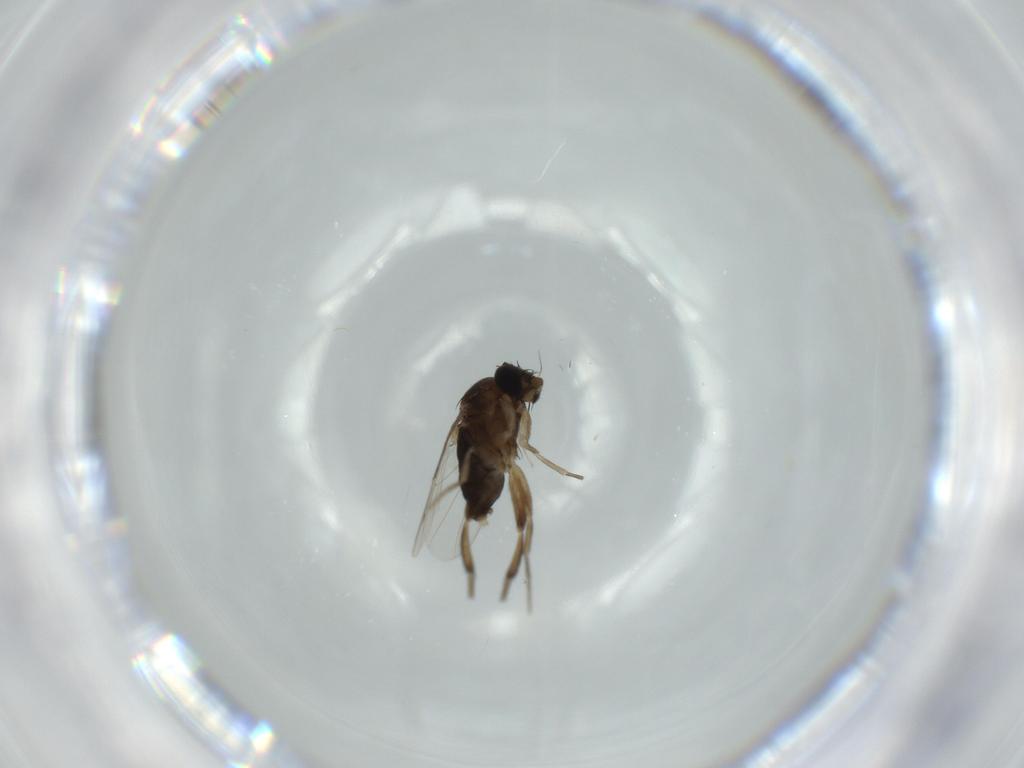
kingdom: Animalia
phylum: Arthropoda
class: Insecta
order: Diptera
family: Phoridae
